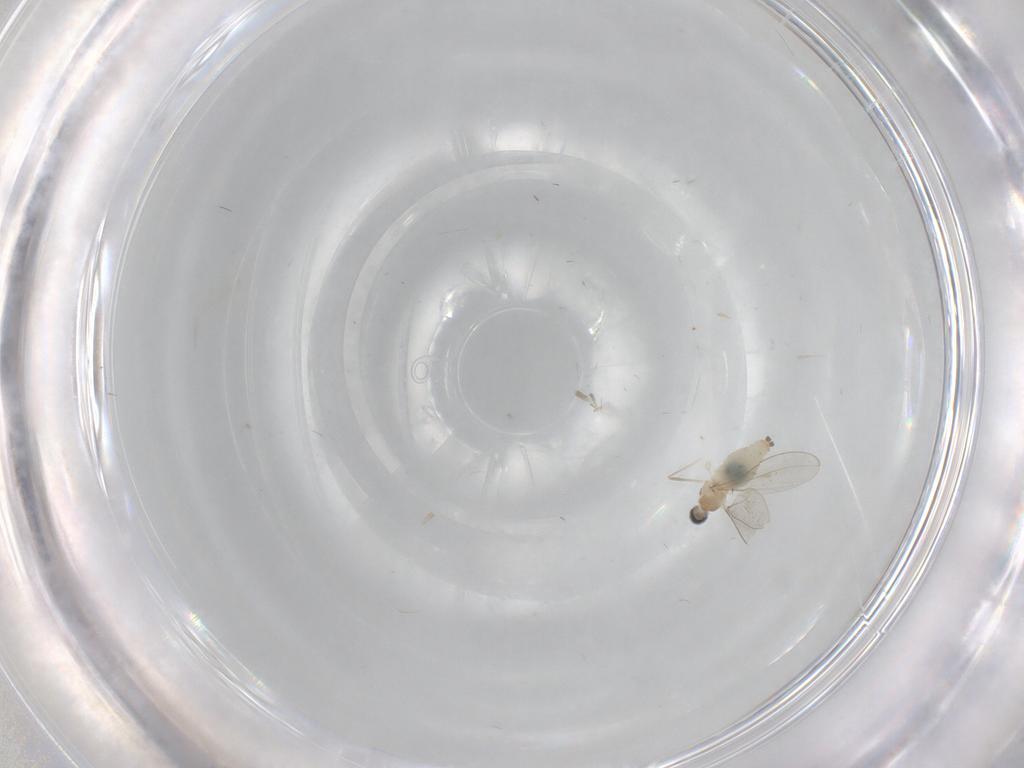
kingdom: Animalia
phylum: Arthropoda
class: Insecta
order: Diptera
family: Cecidomyiidae
